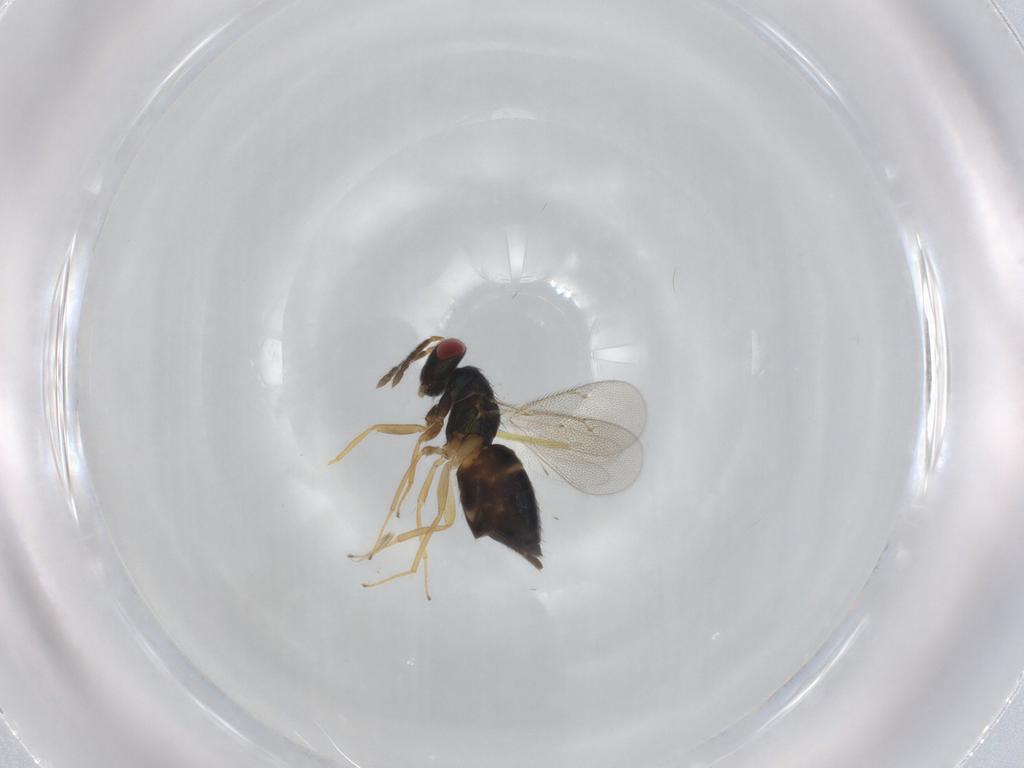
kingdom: Animalia
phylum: Arthropoda
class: Insecta
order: Hymenoptera
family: Eulophidae
